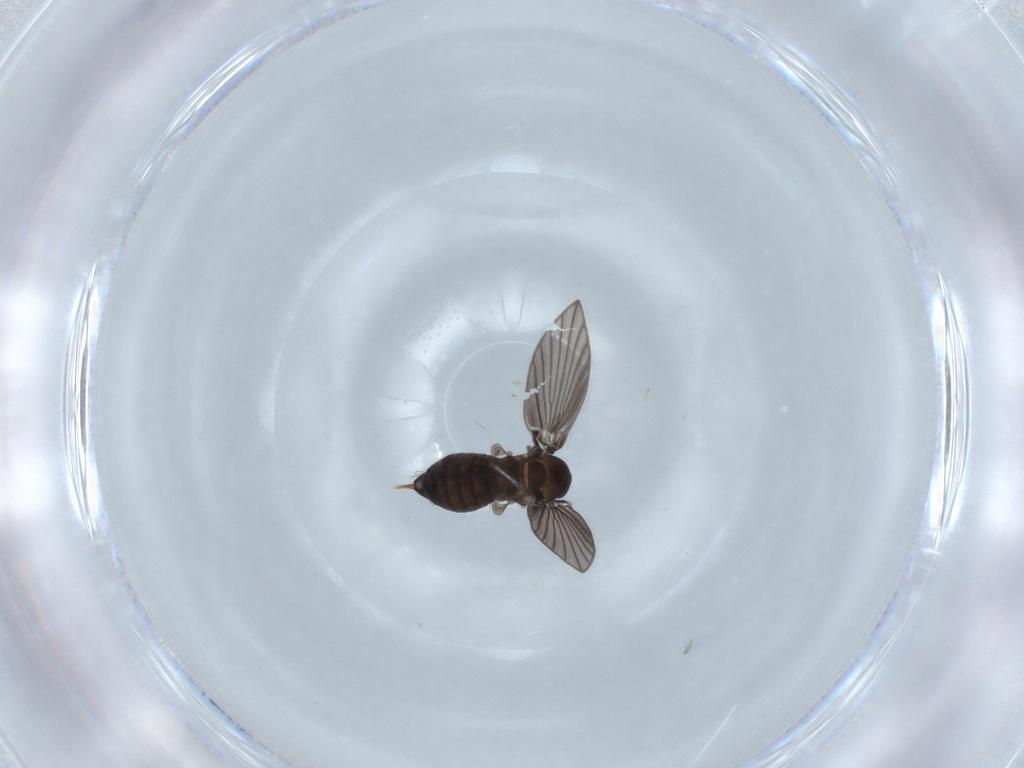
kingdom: Animalia
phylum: Arthropoda
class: Insecta
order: Diptera
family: Psychodidae
